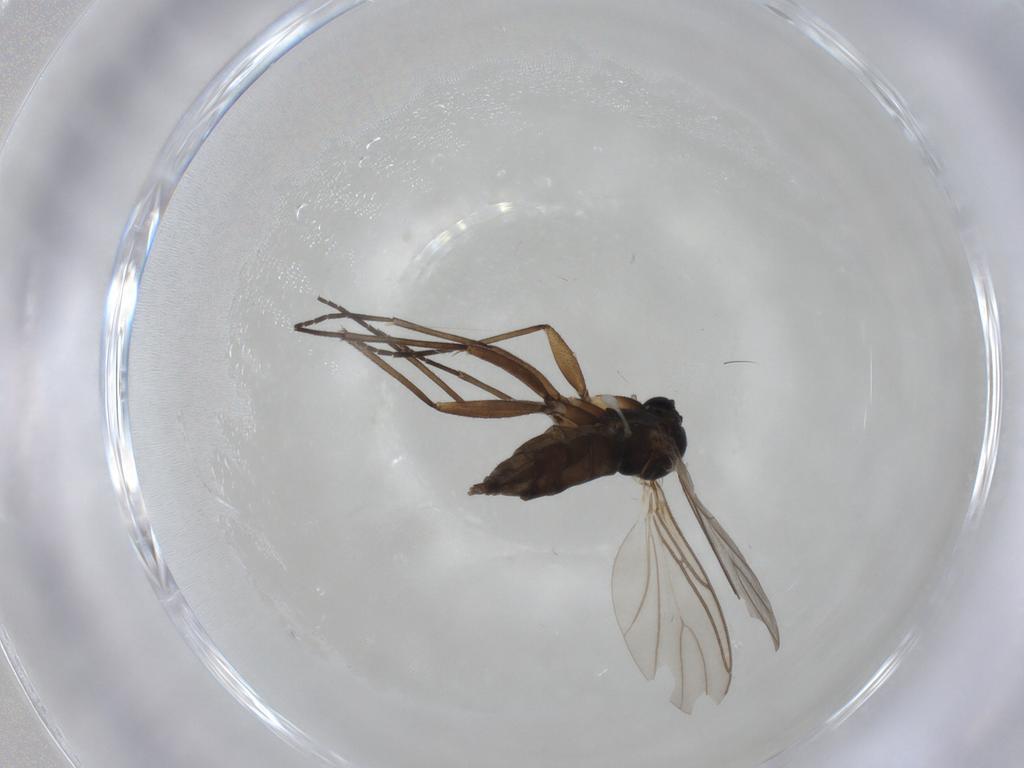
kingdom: Animalia
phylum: Arthropoda
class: Insecta
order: Diptera
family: Sciaridae
